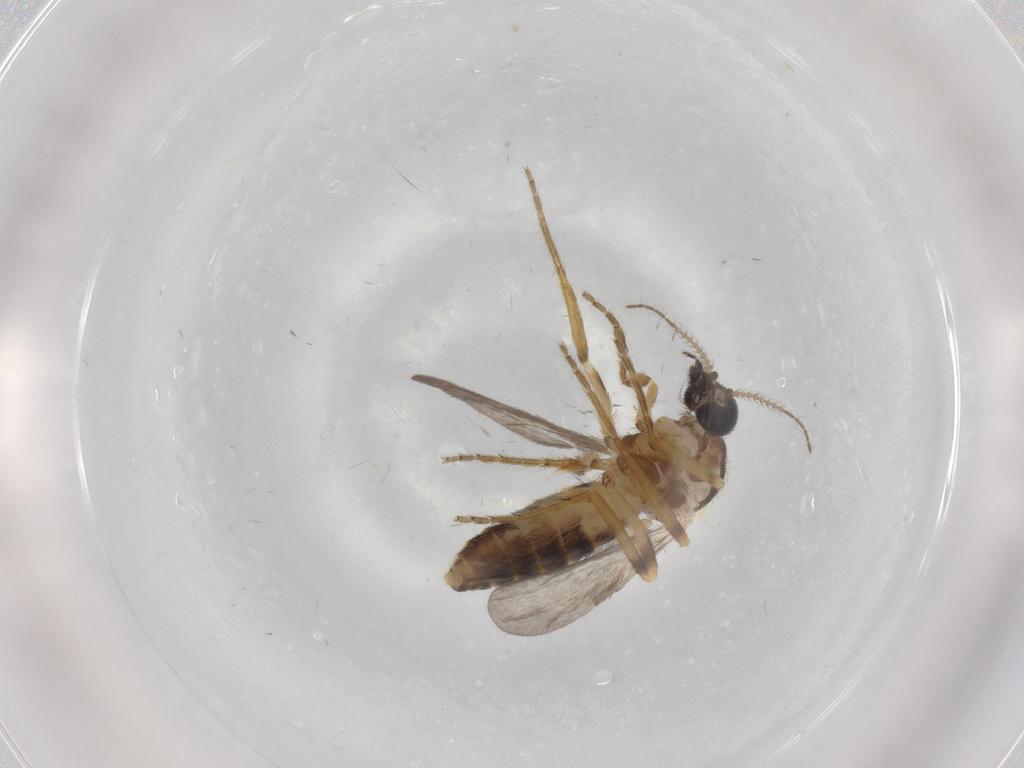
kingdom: Animalia
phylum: Arthropoda
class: Insecta
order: Diptera
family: Ceratopogonidae
